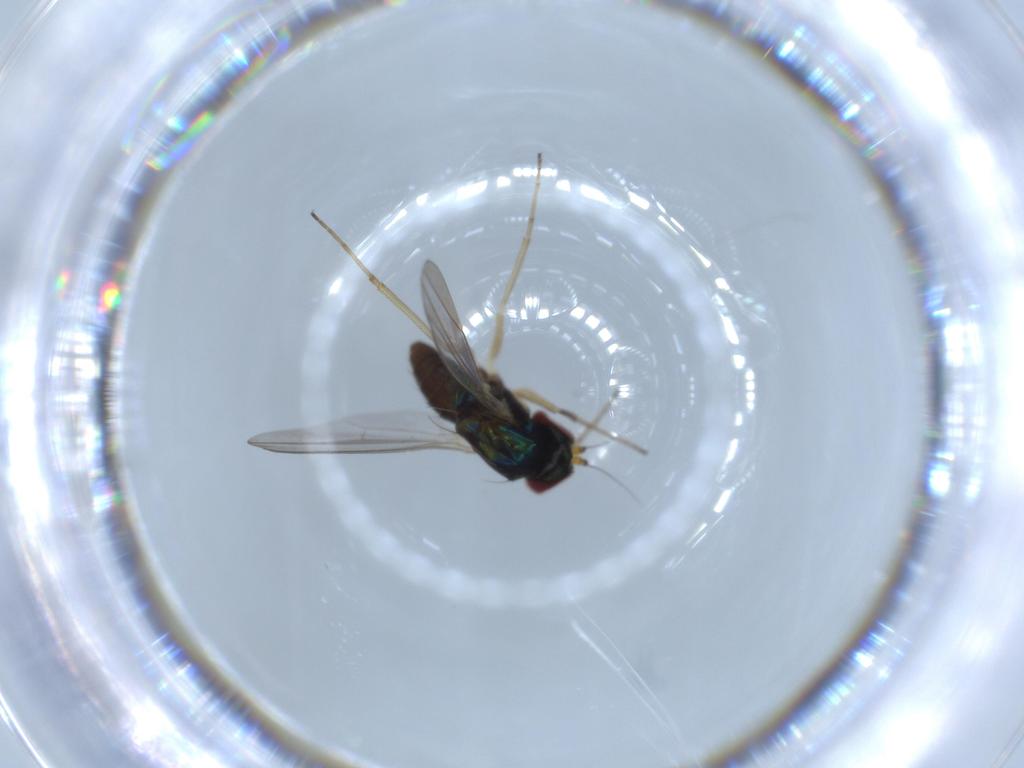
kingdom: Animalia
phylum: Arthropoda
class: Insecta
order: Diptera
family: Dolichopodidae
